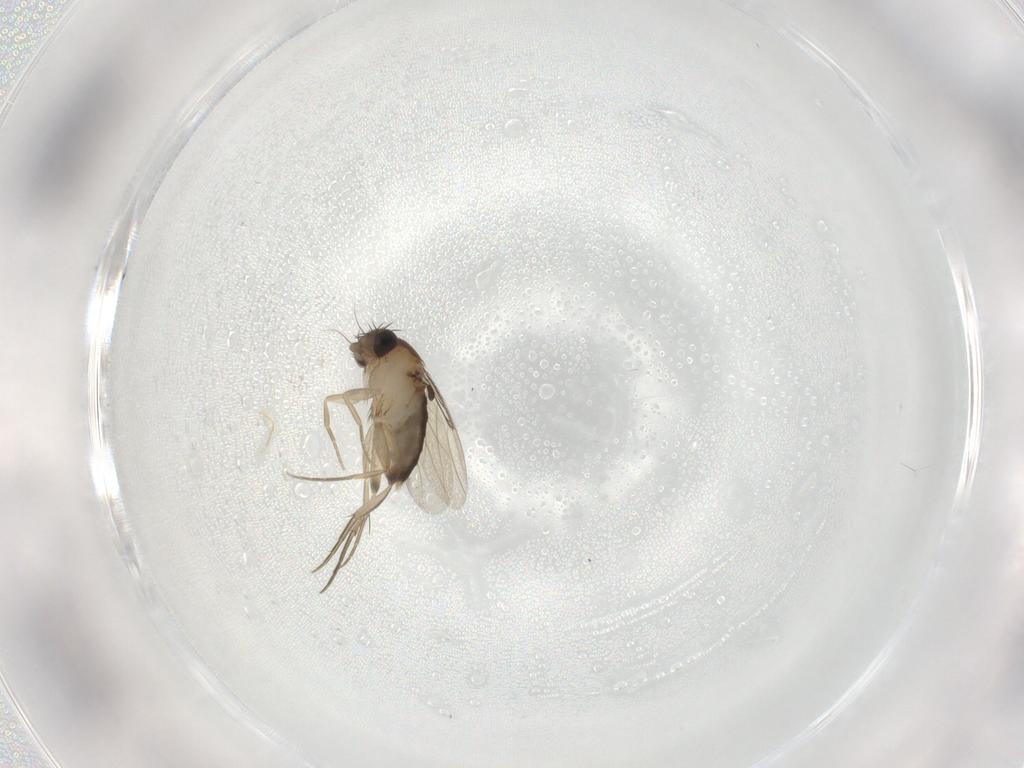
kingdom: Animalia
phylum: Arthropoda
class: Insecta
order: Diptera
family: Phoridae
